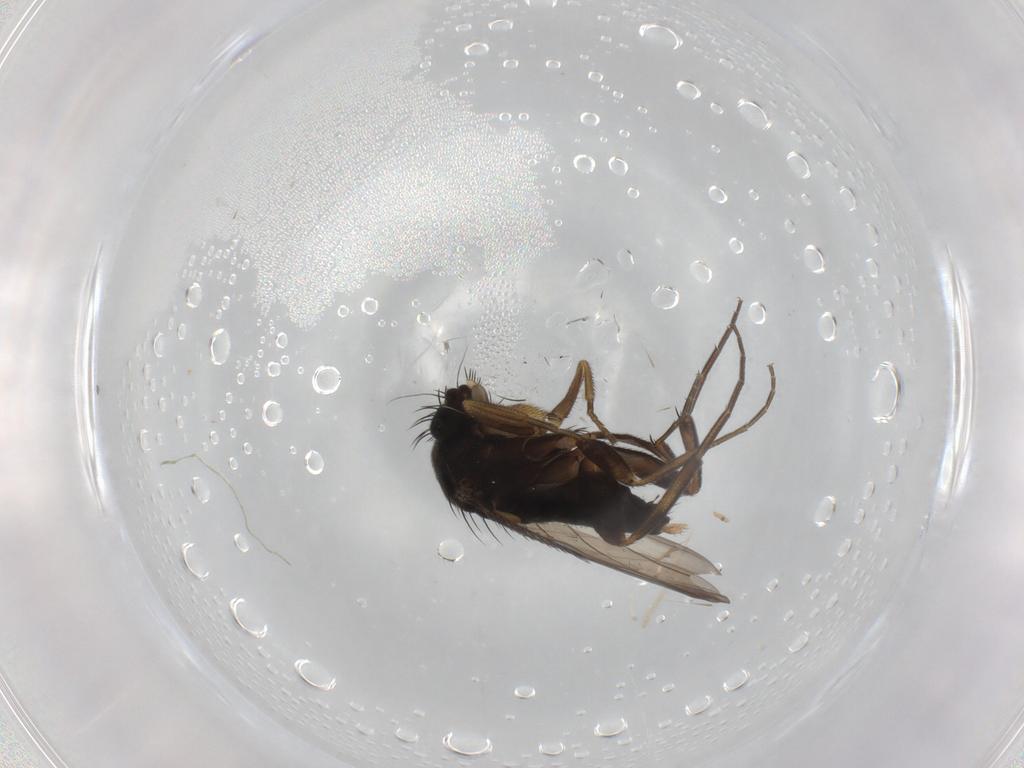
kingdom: Animalia
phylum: Arthropoda
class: Insecta
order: Diptera
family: Phoridae
